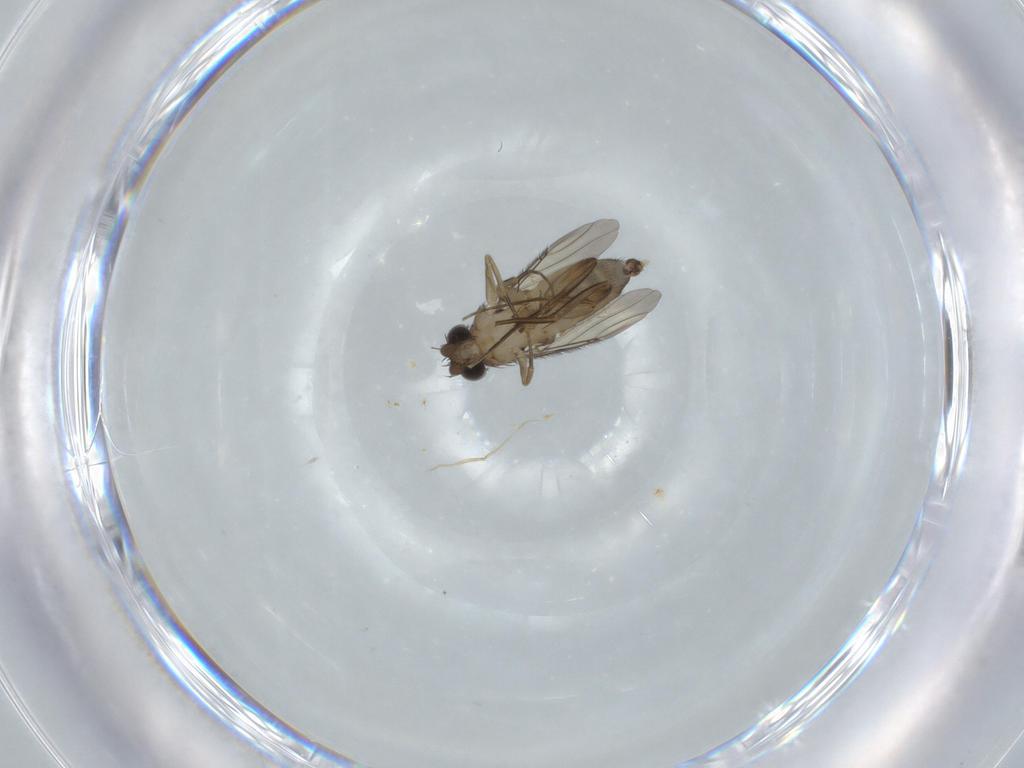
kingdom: Animalia
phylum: Arthropoda
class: Insecta
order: Diptera
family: Phoridae
